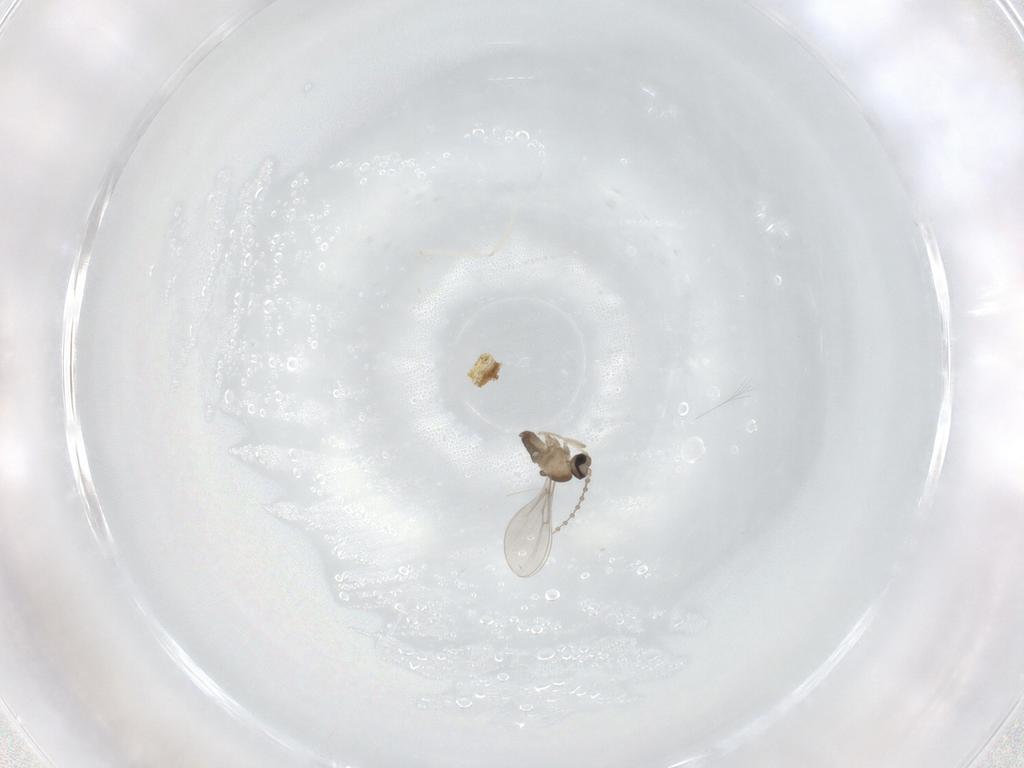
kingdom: Animalia
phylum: Arthropoda
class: Insecta
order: Diptera
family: Cecidomyiidae
